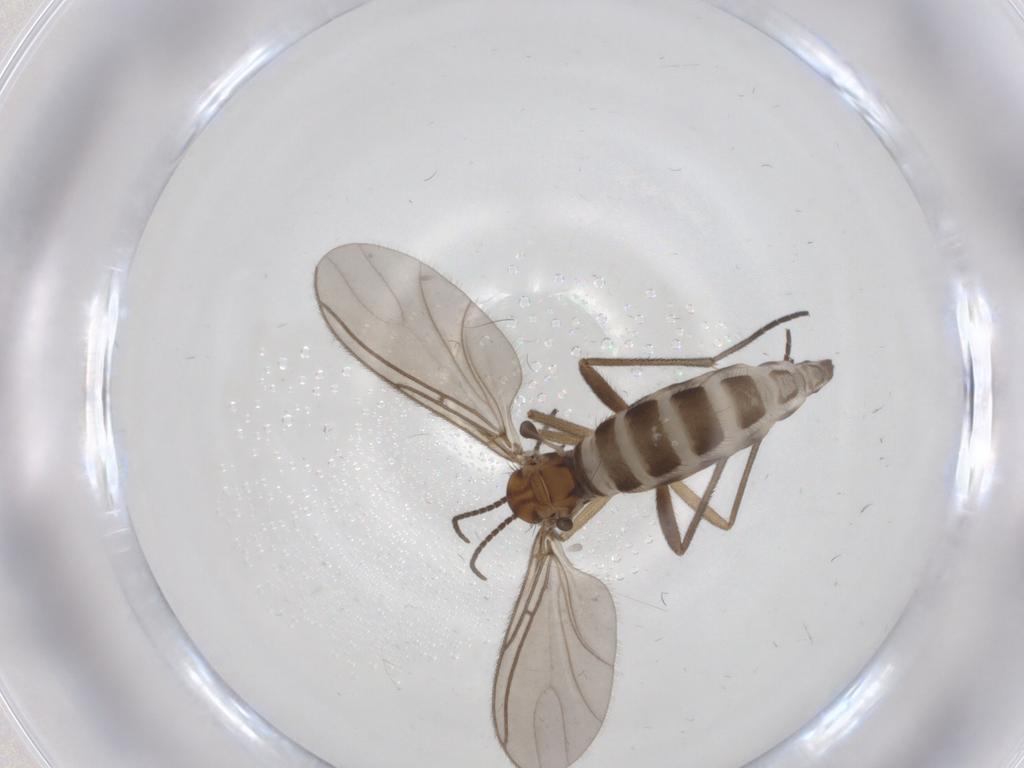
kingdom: Animalia
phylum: Arthropoda
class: Insecta
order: Diptera
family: Sciaridae
